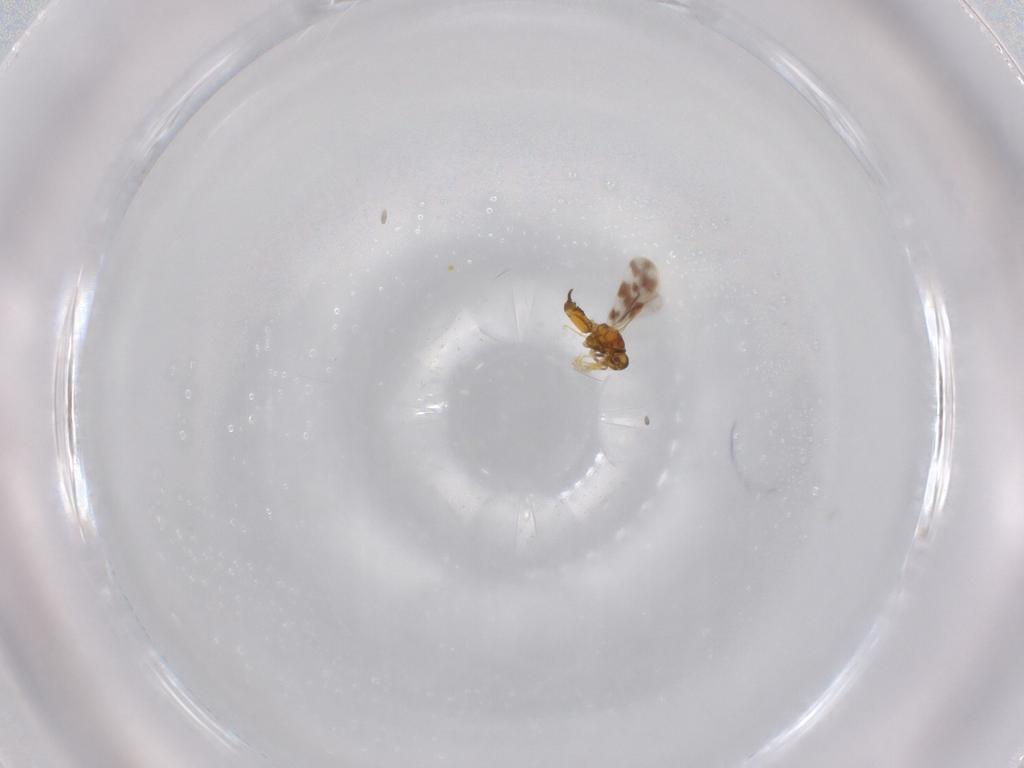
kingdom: Animalia
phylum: Arthropoda
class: Insecta
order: Hemiptera
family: Aleyrodidae
